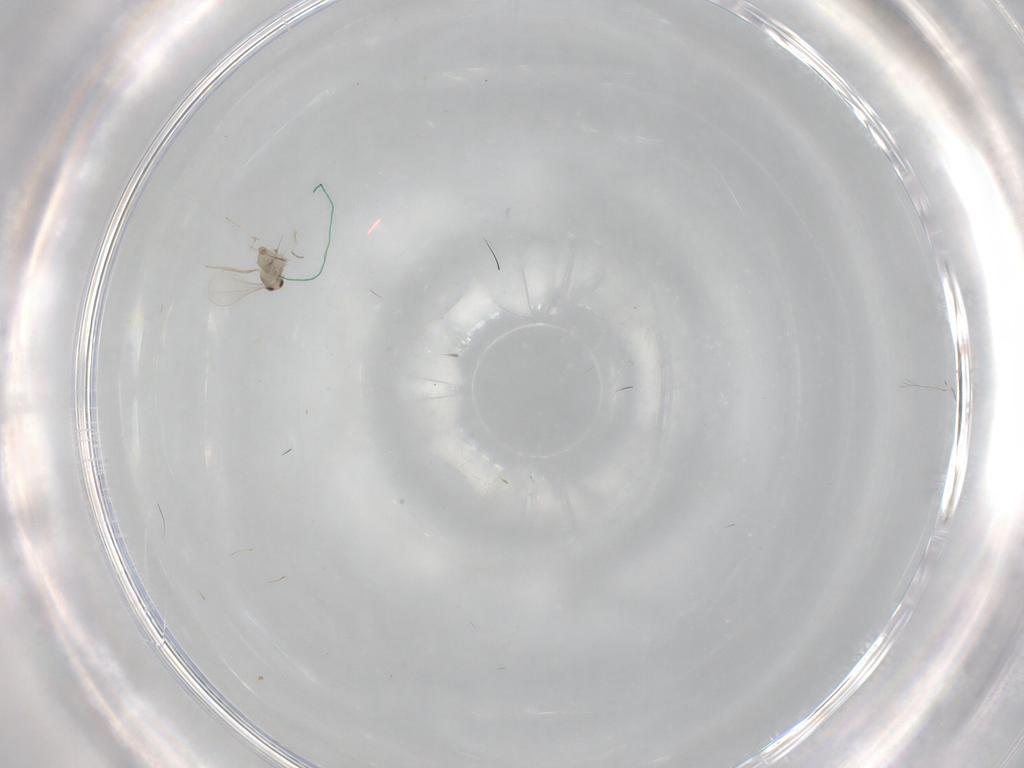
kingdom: Animalia
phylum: Arthropoda
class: Insecta
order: Diptera
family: Cecidomyiidae
